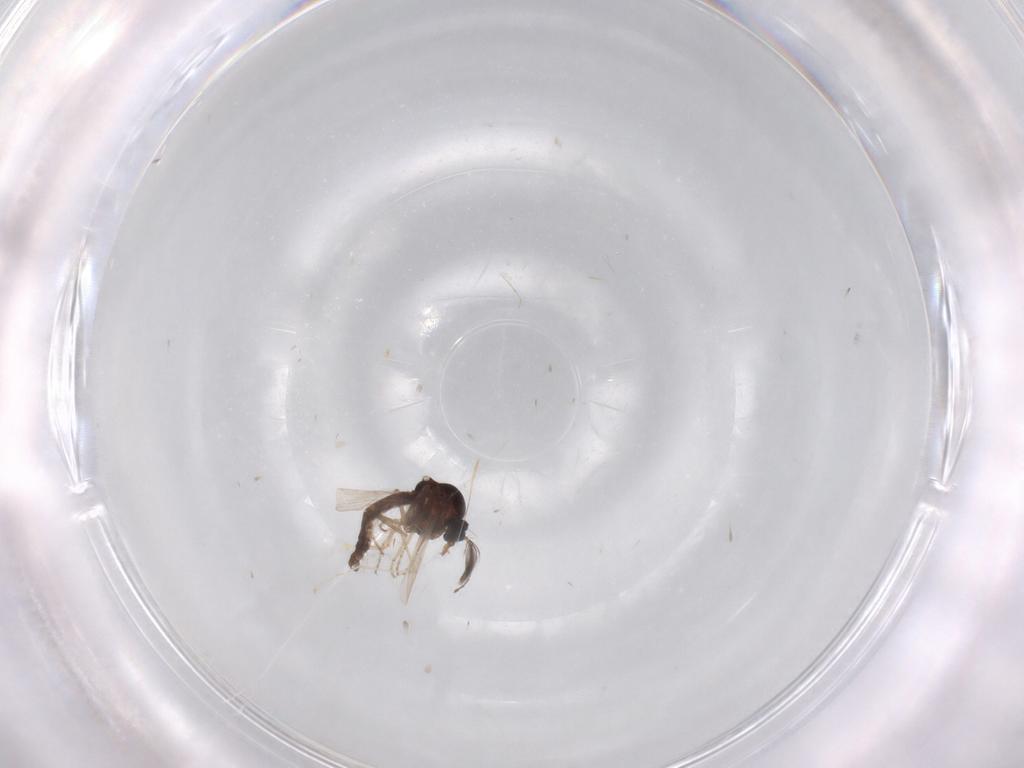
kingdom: Animalia
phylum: Arthropoda
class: Insecta
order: Diptera
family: Ceratopogonidae
